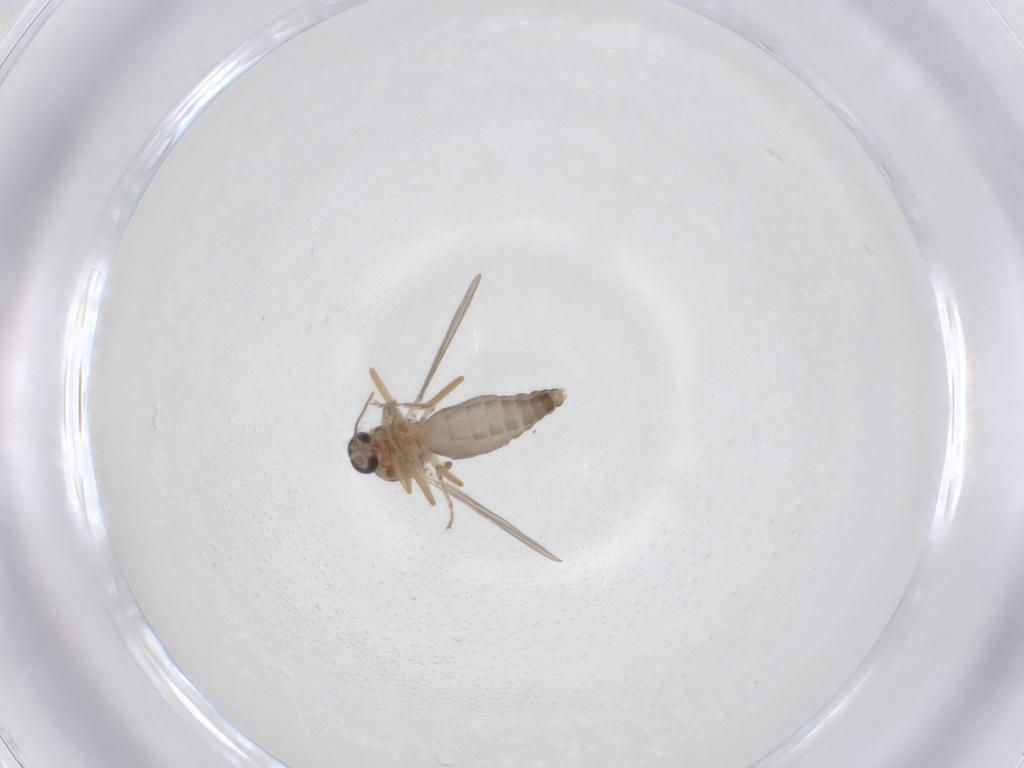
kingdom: Animalia
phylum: Arthropoda
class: Insecta
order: Diptera
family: Ceratopogonidae
